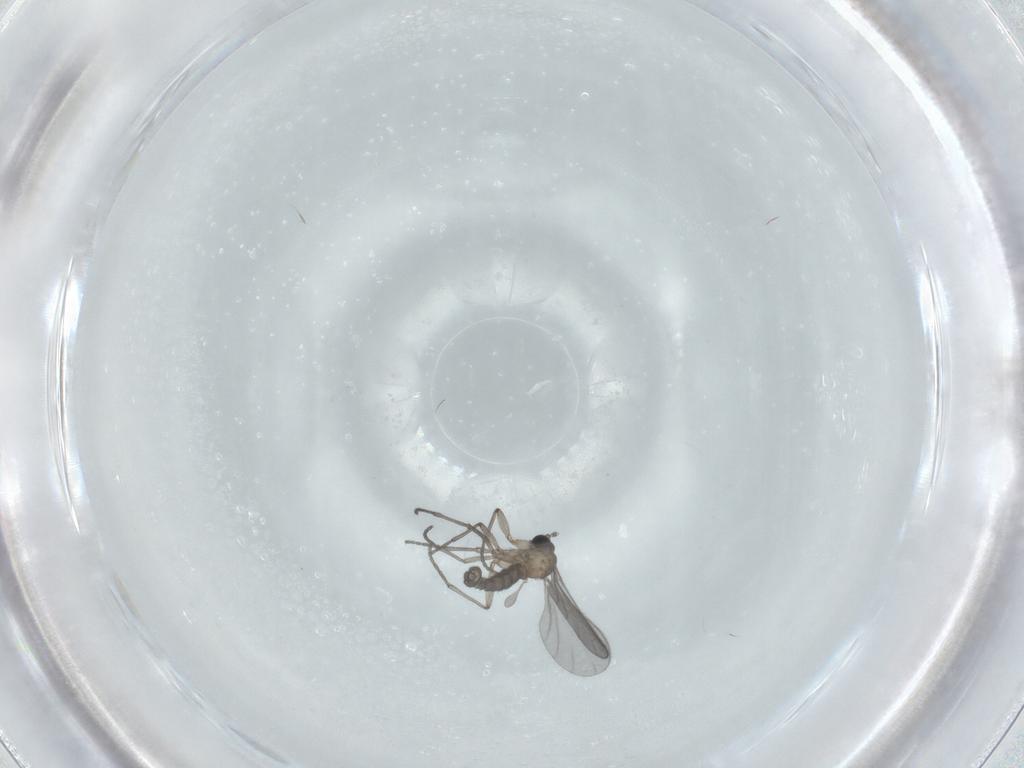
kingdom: Animalia
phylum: Arthropoda
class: Insecta
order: Diptera
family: Sciaridae
